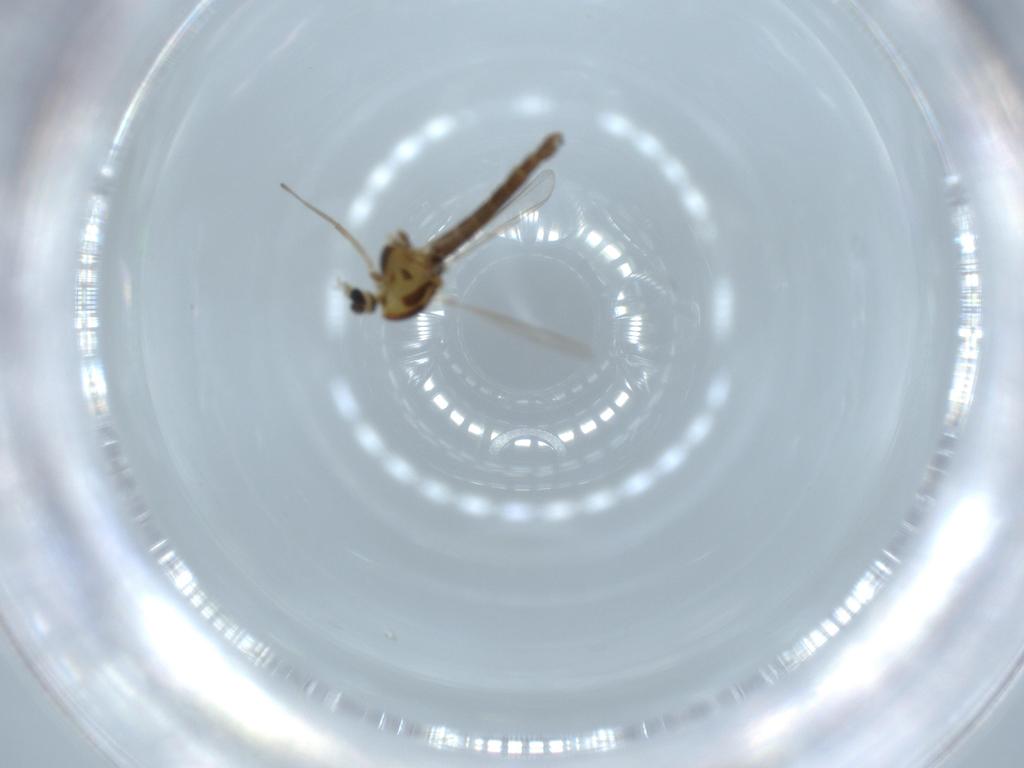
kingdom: Animalia
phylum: Arthropoda
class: Insecta
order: Diptera
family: Chironomidae
